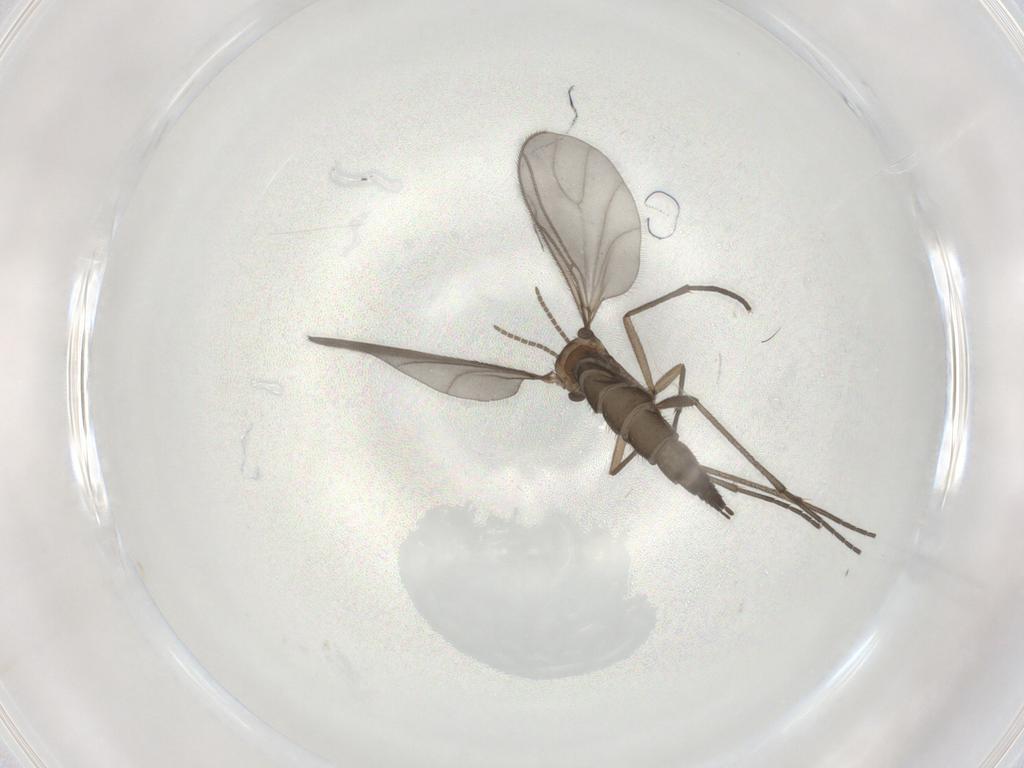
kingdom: Animalia
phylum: Arthropoda
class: Insecta
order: Diptera
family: Sciaridae
